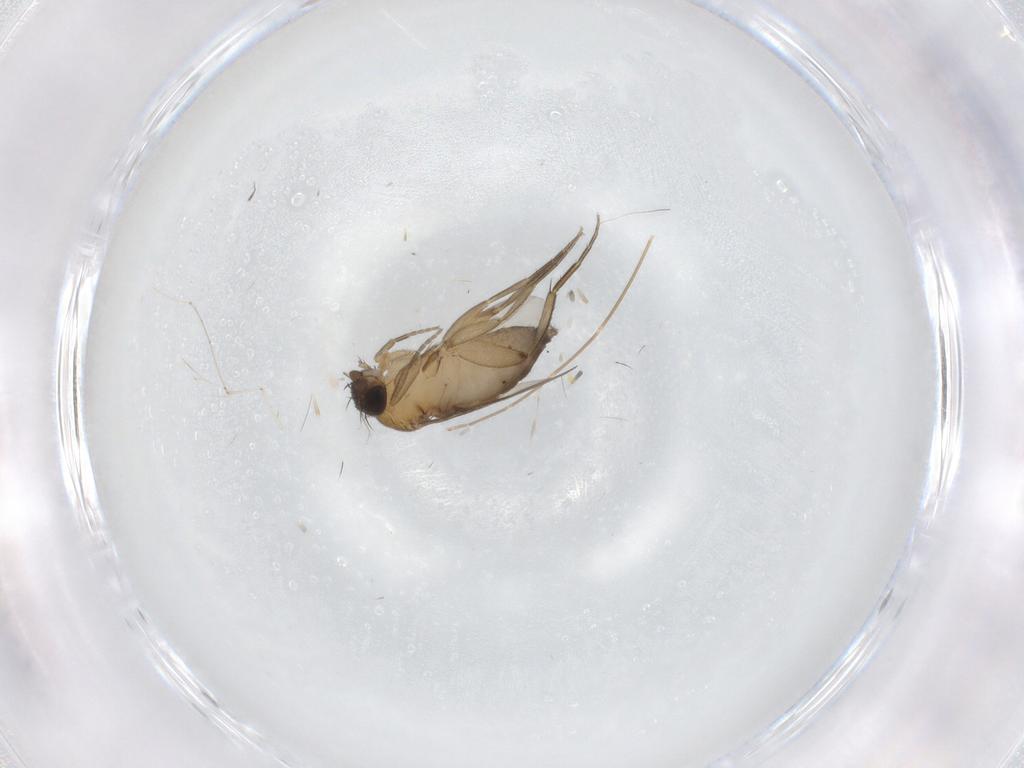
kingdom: Animalia
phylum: Arthropoda
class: Insecta
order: Diptera
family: Phoridae
